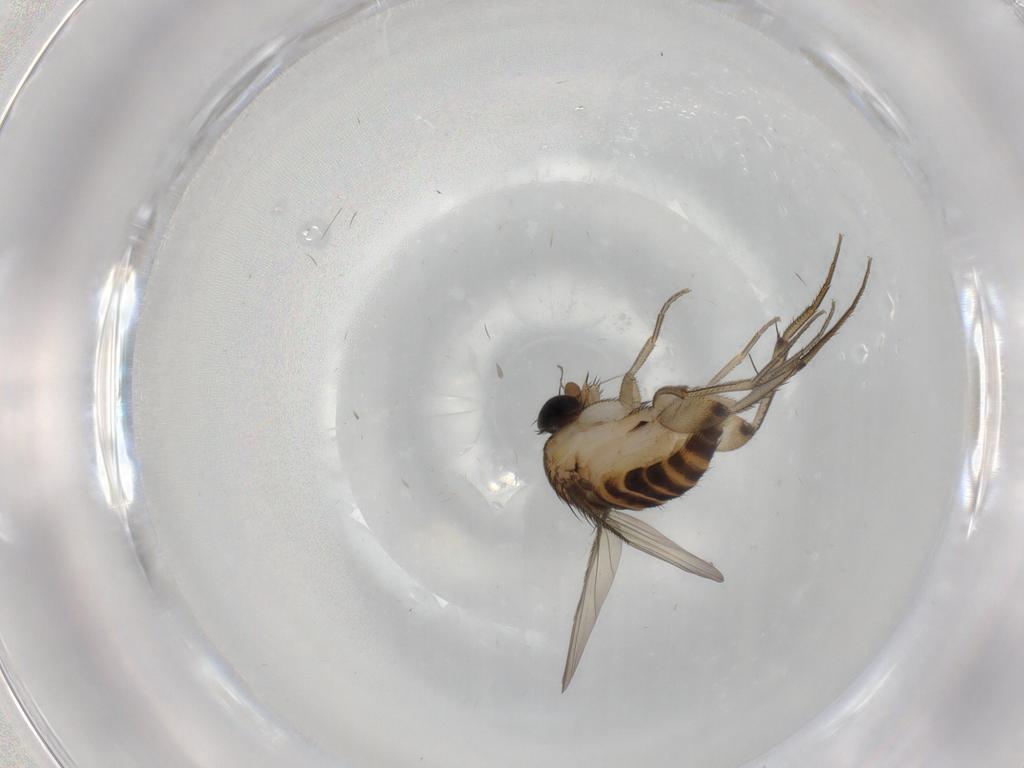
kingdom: Animalia
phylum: Arthropoda
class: Insecta
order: Diptera
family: Phoridae
